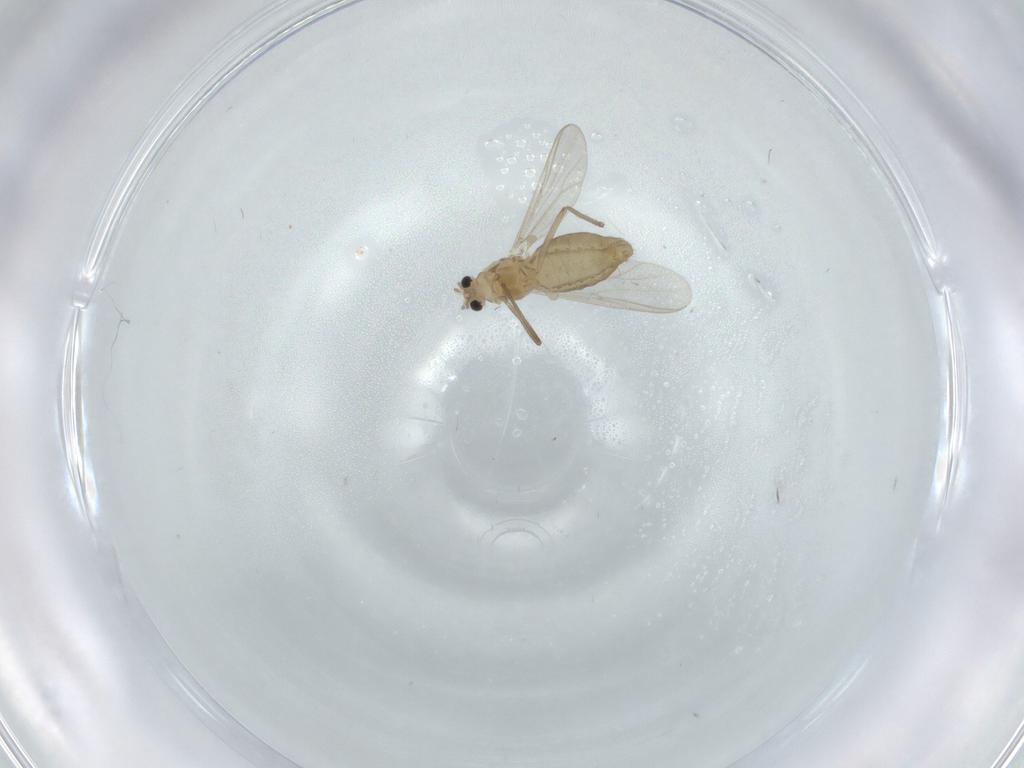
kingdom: Animalia
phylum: Arthropoda
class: Insecta
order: Diptera
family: Chironomidae
